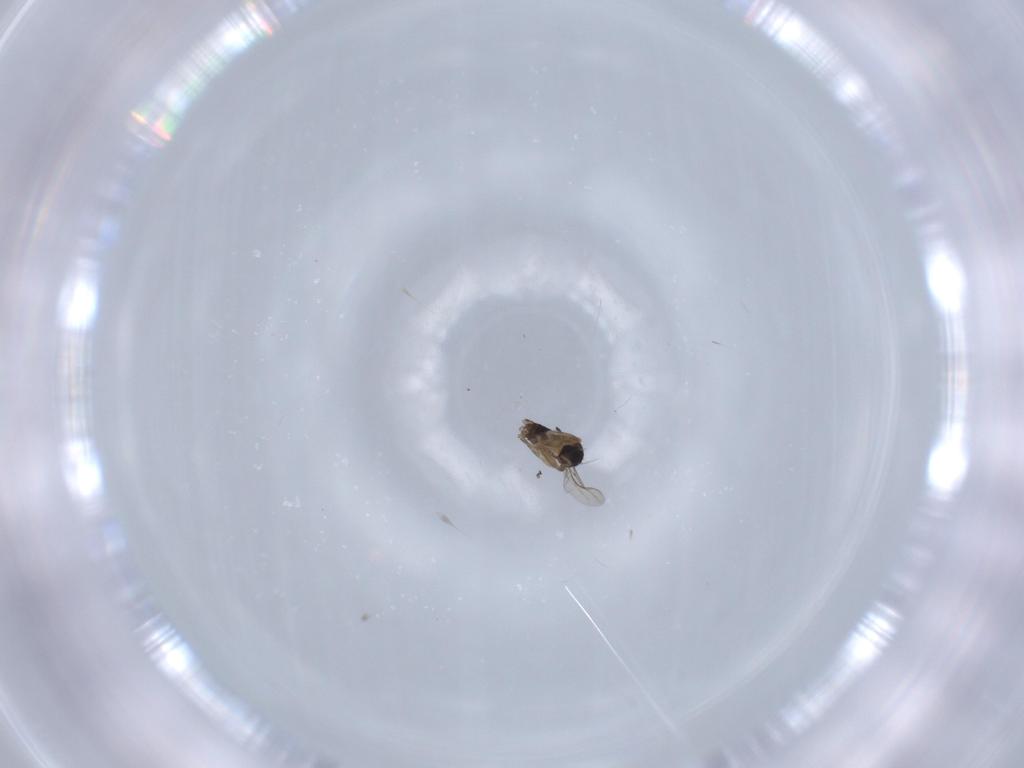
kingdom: Animalia
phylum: Arthropoda
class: Insecta
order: Diptera
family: Phoridae
